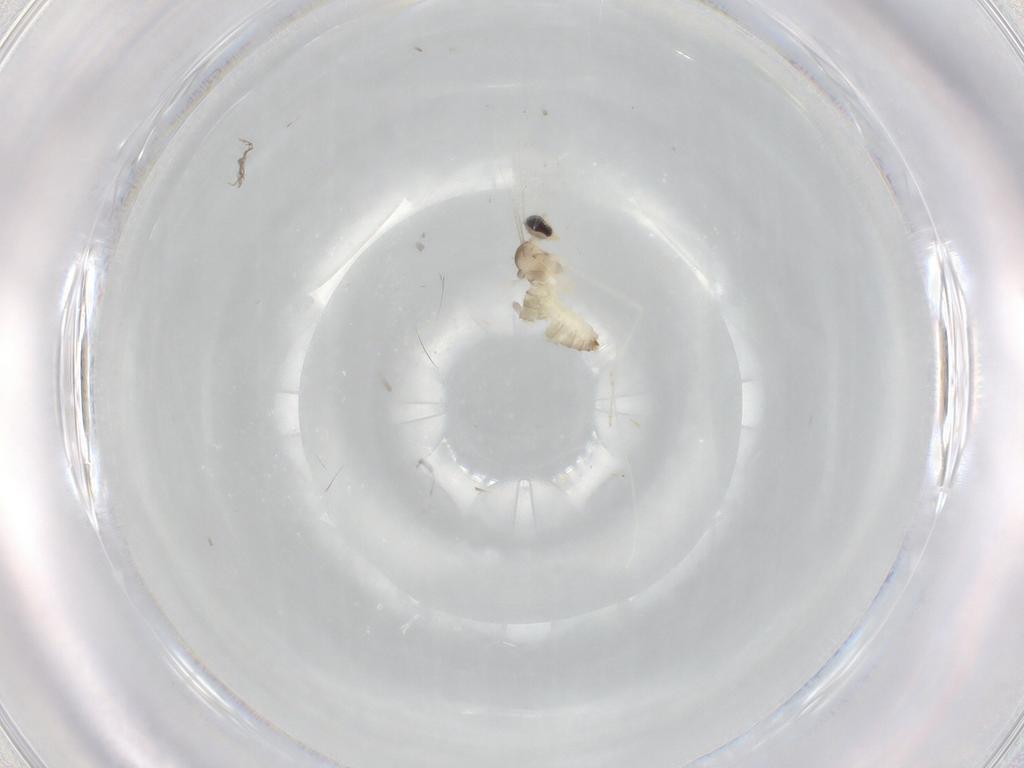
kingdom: Animalia
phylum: Arthropoda
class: Insecta
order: Diptera
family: Cecidomyiidae
